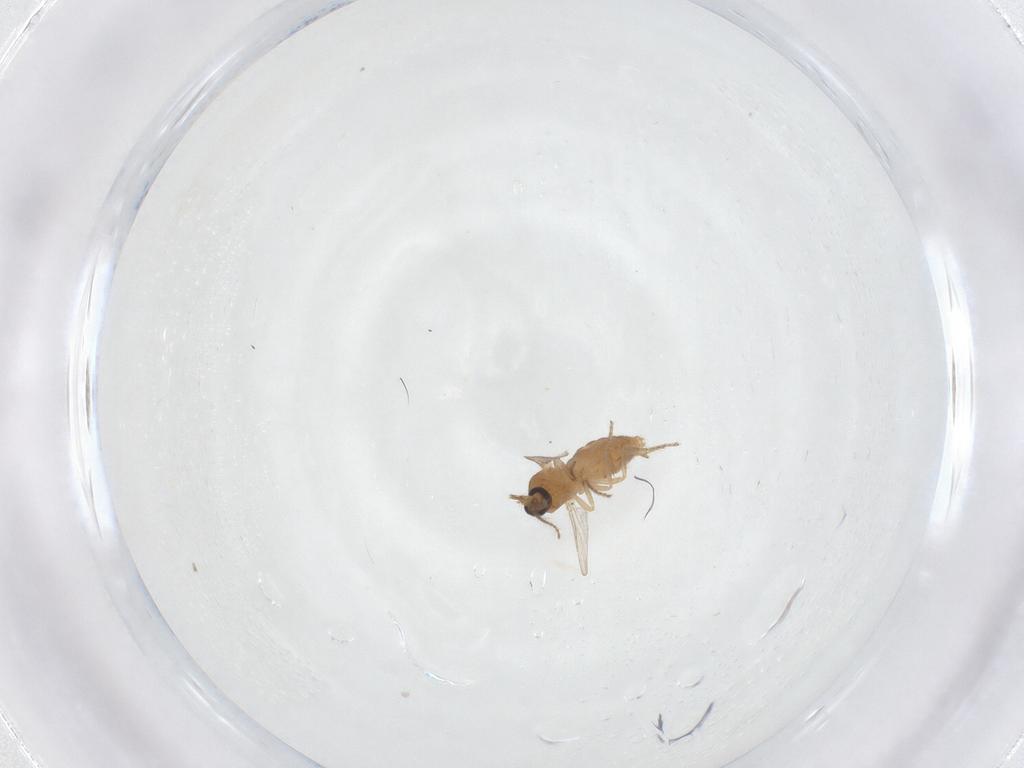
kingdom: Animalia
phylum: Arthropoda
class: Insecta
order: Diptera
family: Ceratopogonidae
